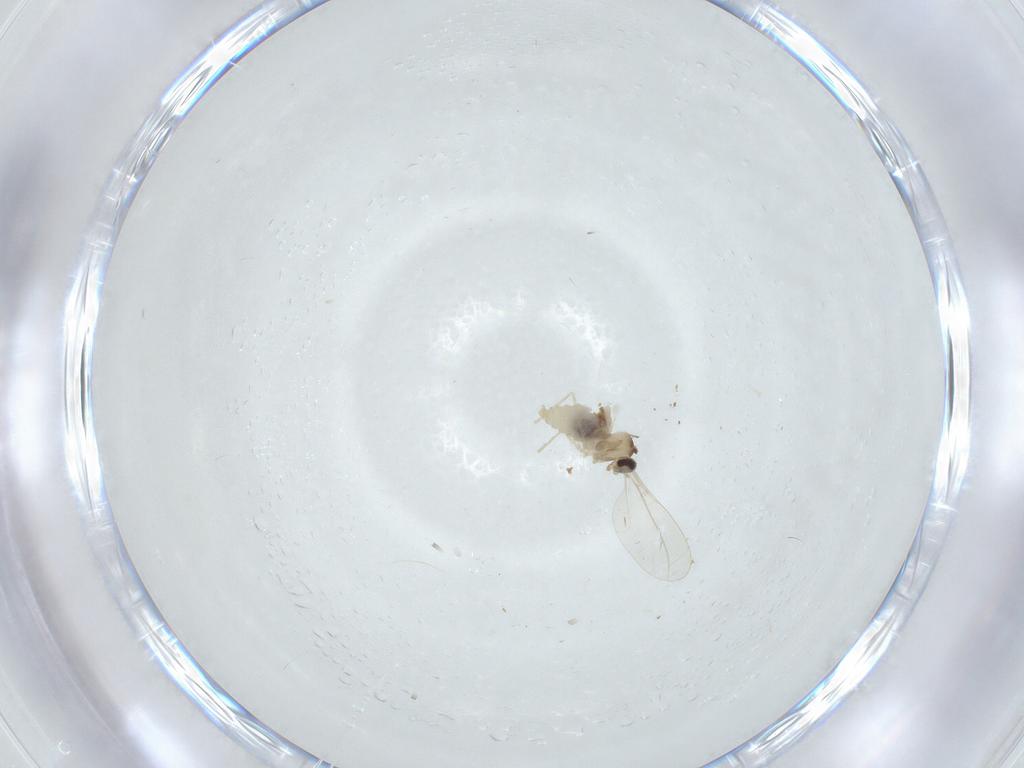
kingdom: Animalia
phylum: Arthropoda
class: Insecta
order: Diptera
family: Cecidomyiidae
